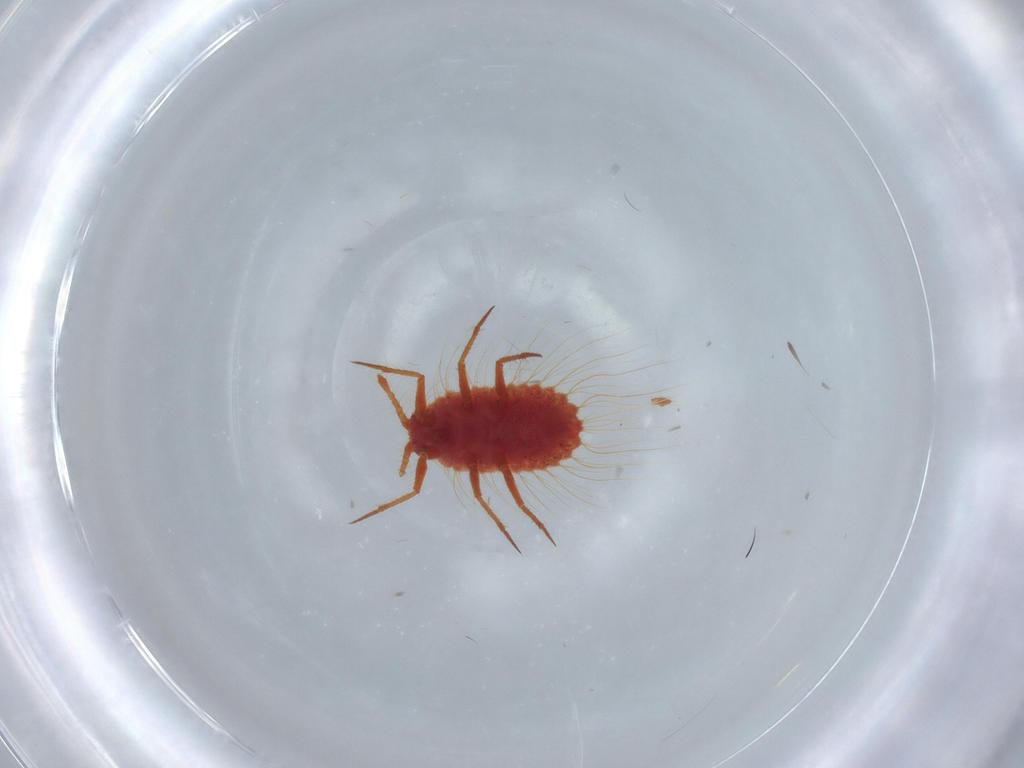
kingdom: Animalia
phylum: Arthropoda
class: Insecta
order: Hemiptera
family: Monophlebidae
